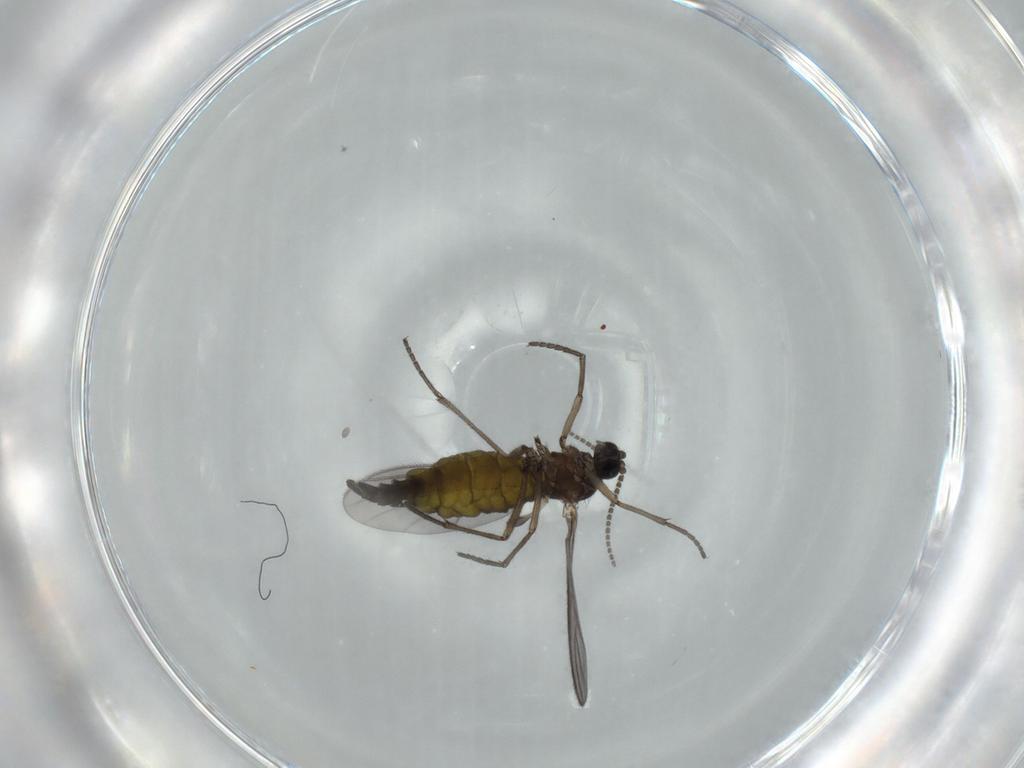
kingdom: Animalia
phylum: Arthropoda
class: Insecta
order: Diptera
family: Sciaridae
